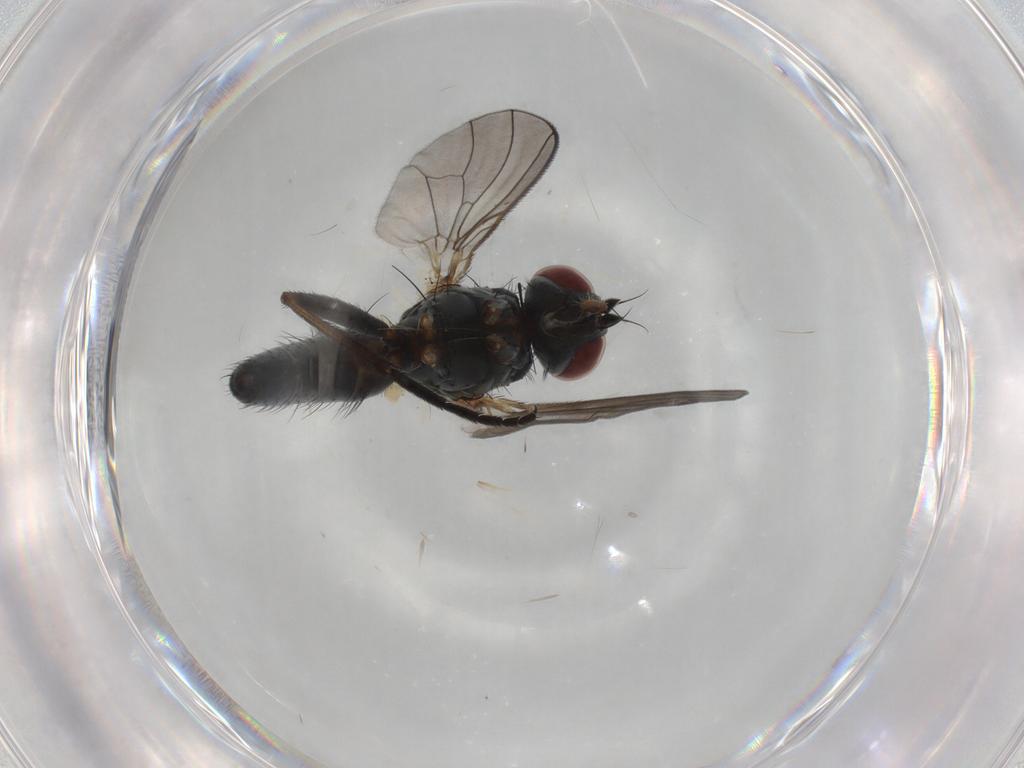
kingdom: Animalia
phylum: Arthropoda
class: Insecta
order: Diptera
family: Muscidae
